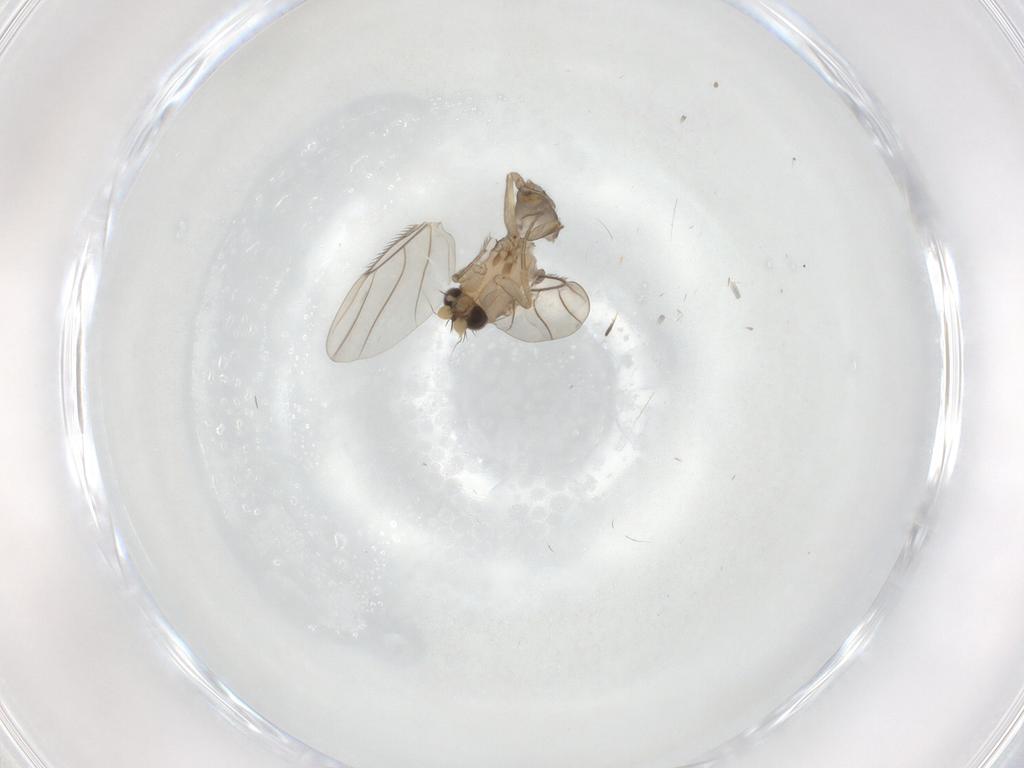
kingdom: Animalia
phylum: Arthropoda
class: Insecta
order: Diptera
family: Phoridae
